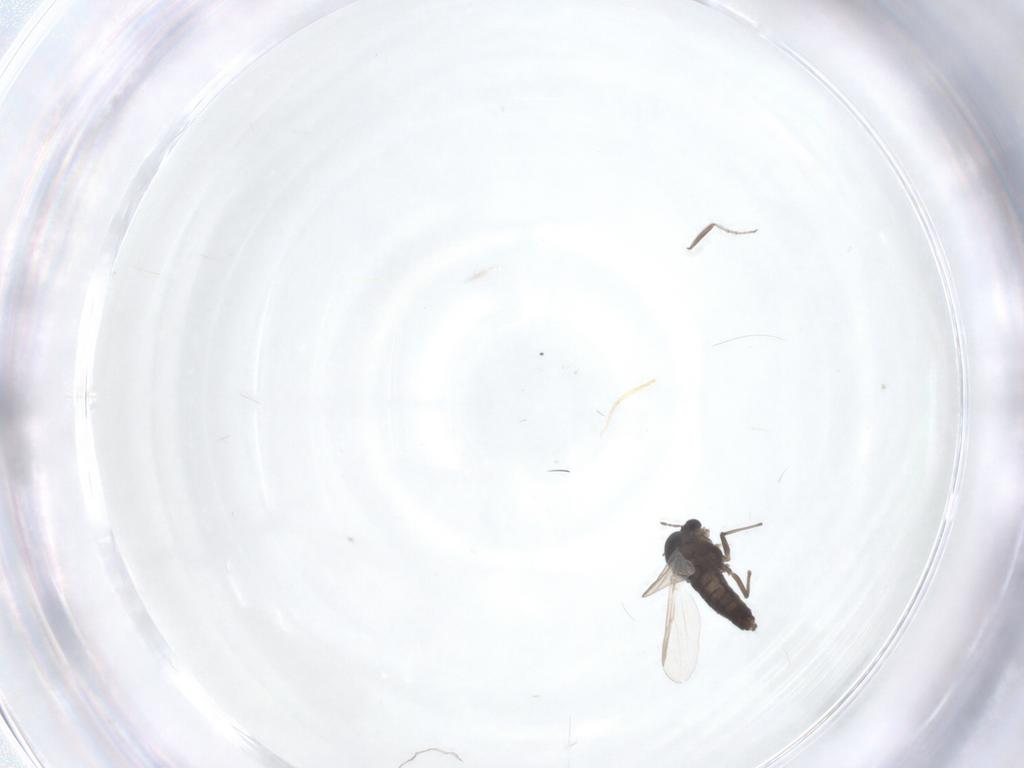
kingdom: Animalia
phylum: Arthropoda
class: Insecta
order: Diptera
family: Chironomidae
